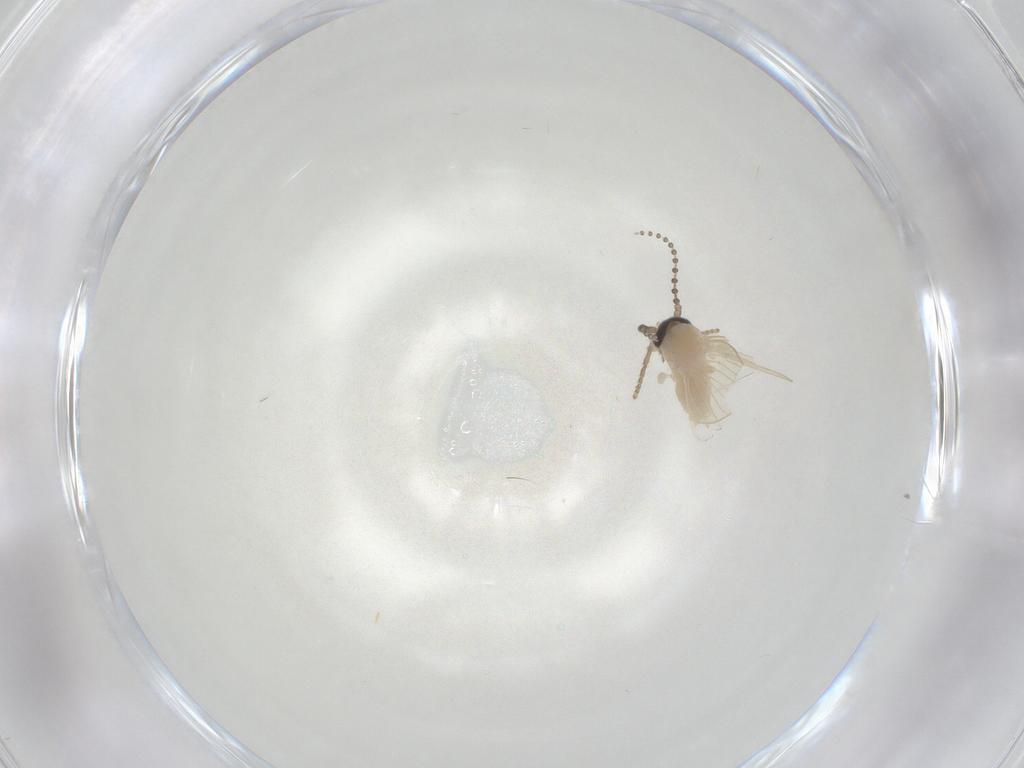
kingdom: Animalia
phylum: Arthropoda
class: Insecta
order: Diptera
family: Psychodidae
